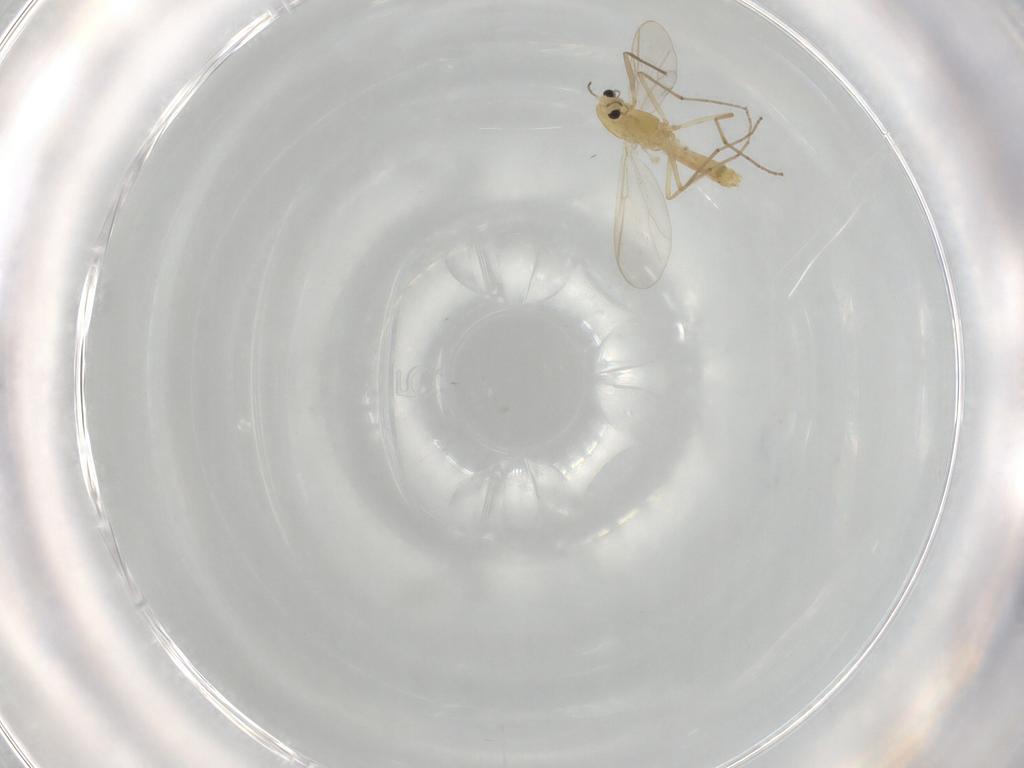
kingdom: Animalia
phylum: Arthropoda
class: Insecta
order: Diptera
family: Chironomidae
